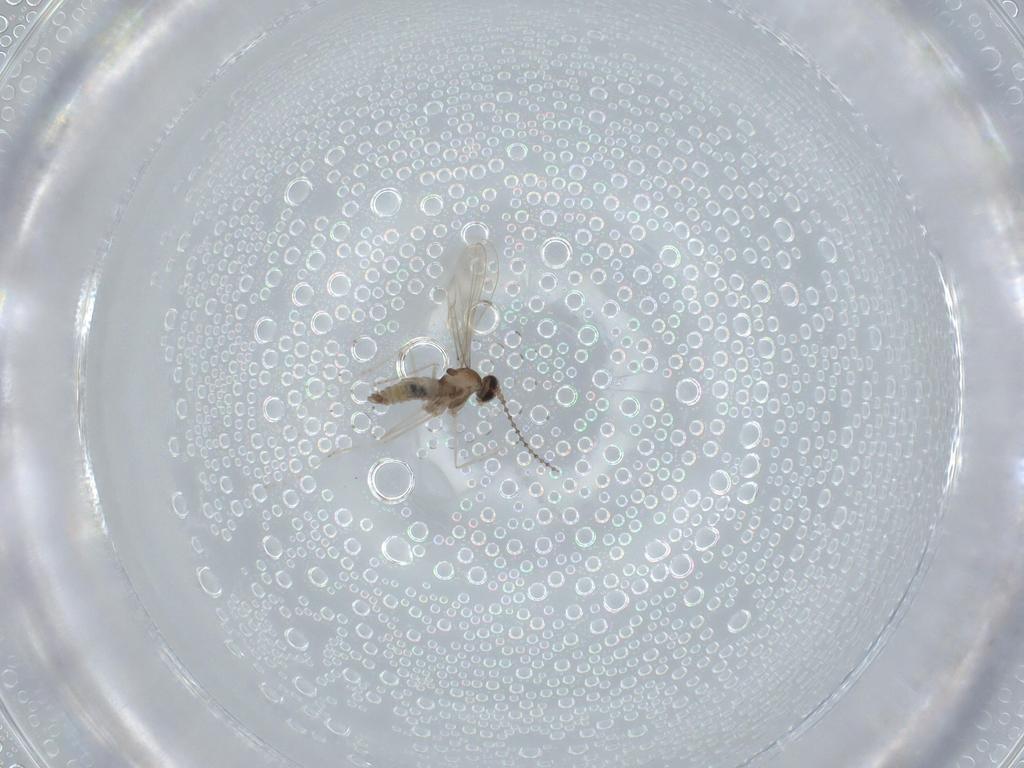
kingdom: Animalia
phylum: Arthropoda
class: Insecta
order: Diptera
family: Cecidomyiidae
